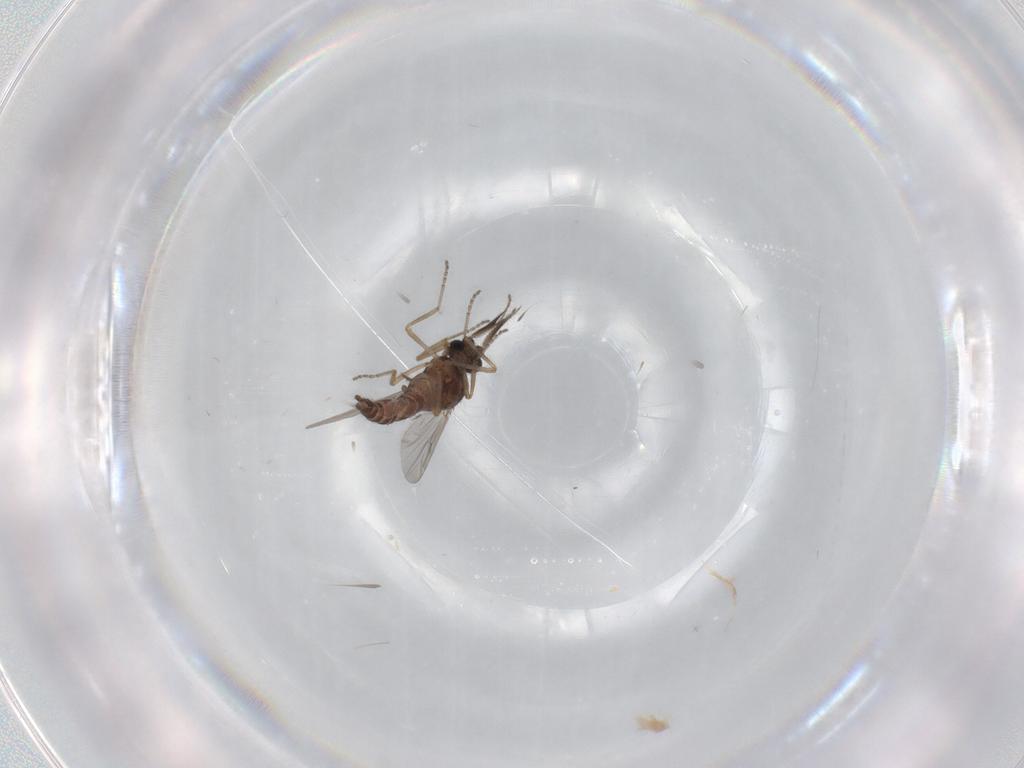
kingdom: Animalia
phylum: Arthropoda
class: Insecta
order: Diptera
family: Ceratopogonidae
